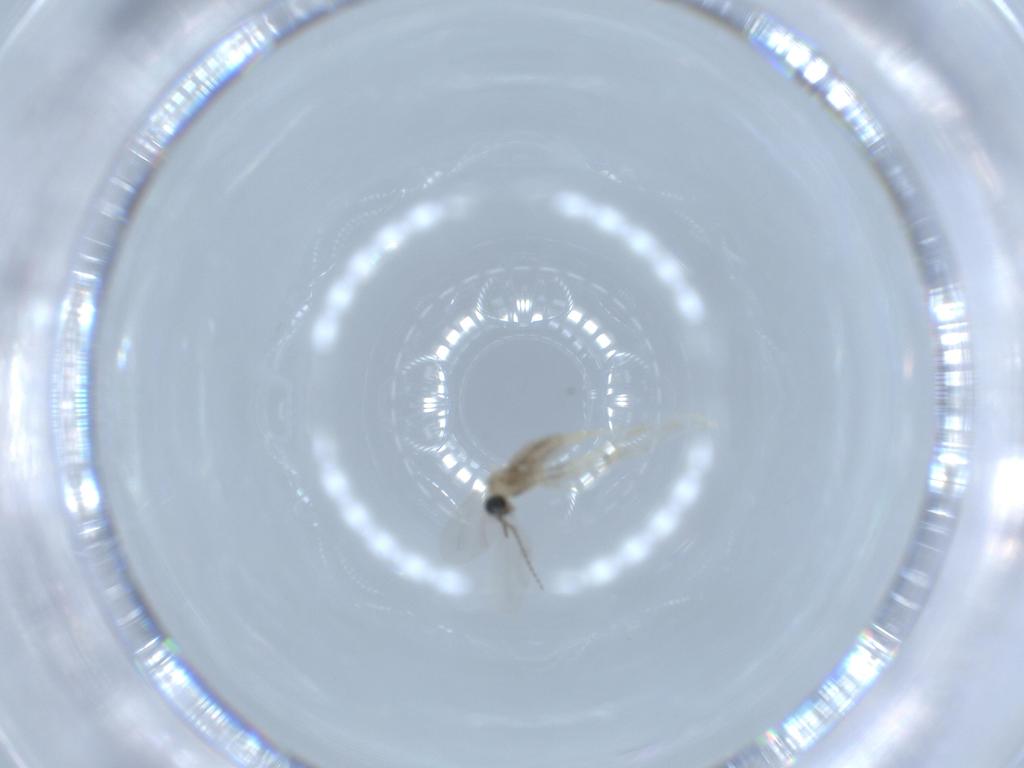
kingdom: Animalia
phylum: Arthropoda
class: Insecta
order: Diptera
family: Cecidomyiidae
